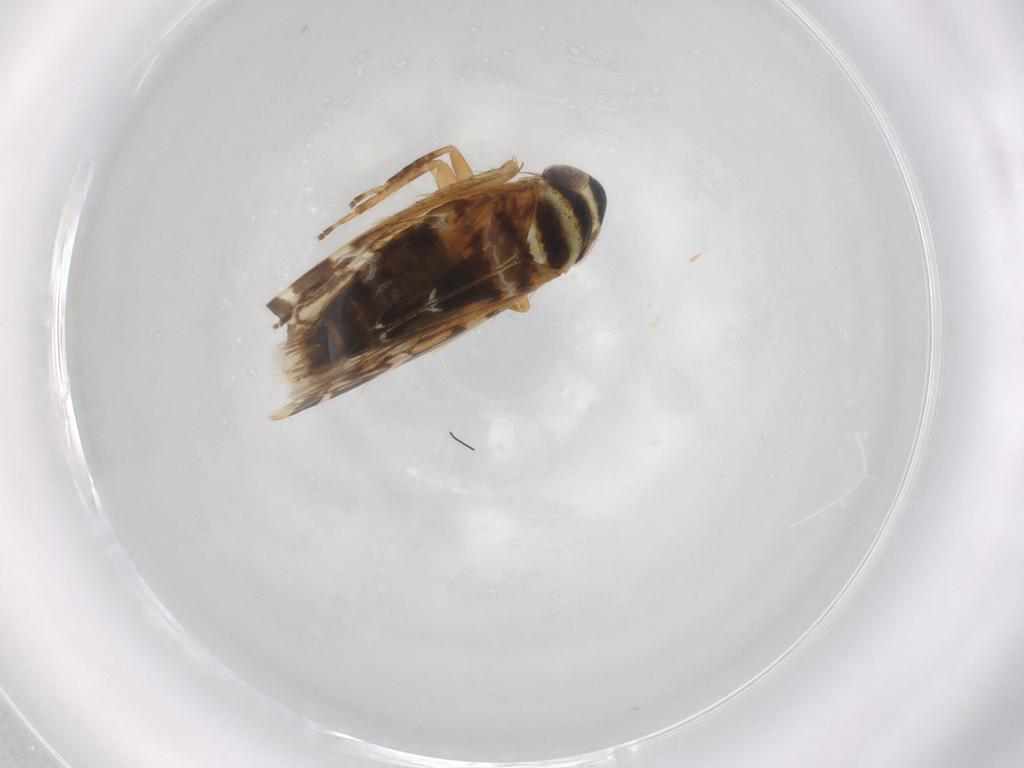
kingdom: Animalia
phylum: Arthropoda
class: Insecta
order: Hemiptera
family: Cicadellidae
